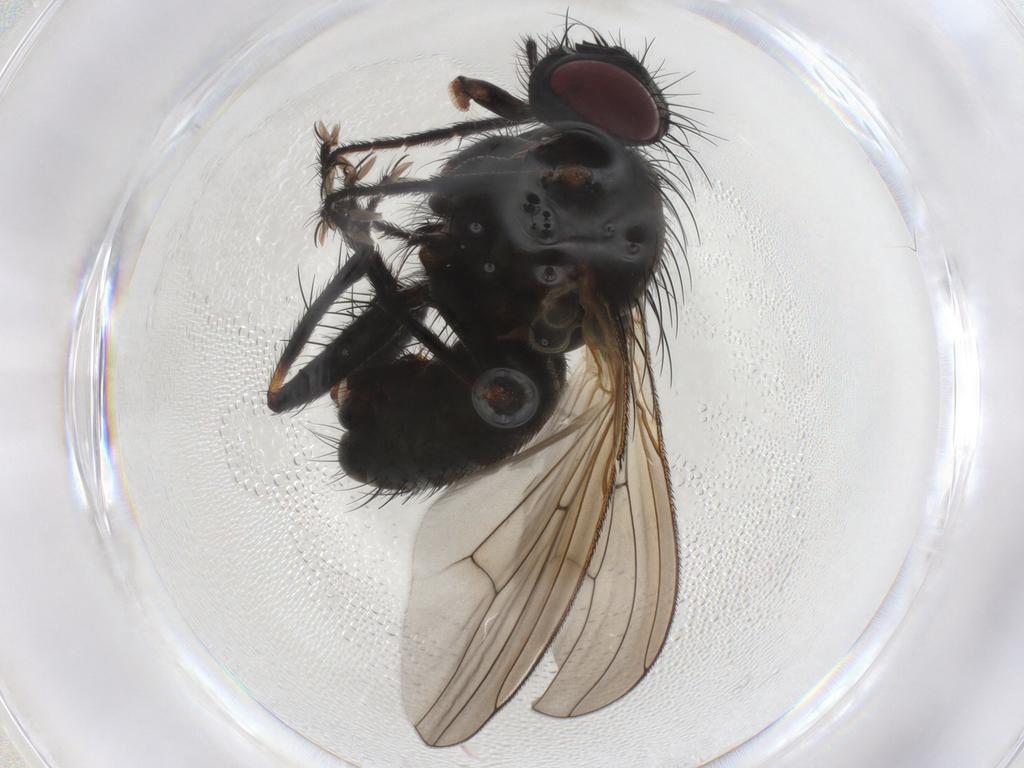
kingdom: Animalia
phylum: Arthropoda
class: Insecta
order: Diptera
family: Muscidae
